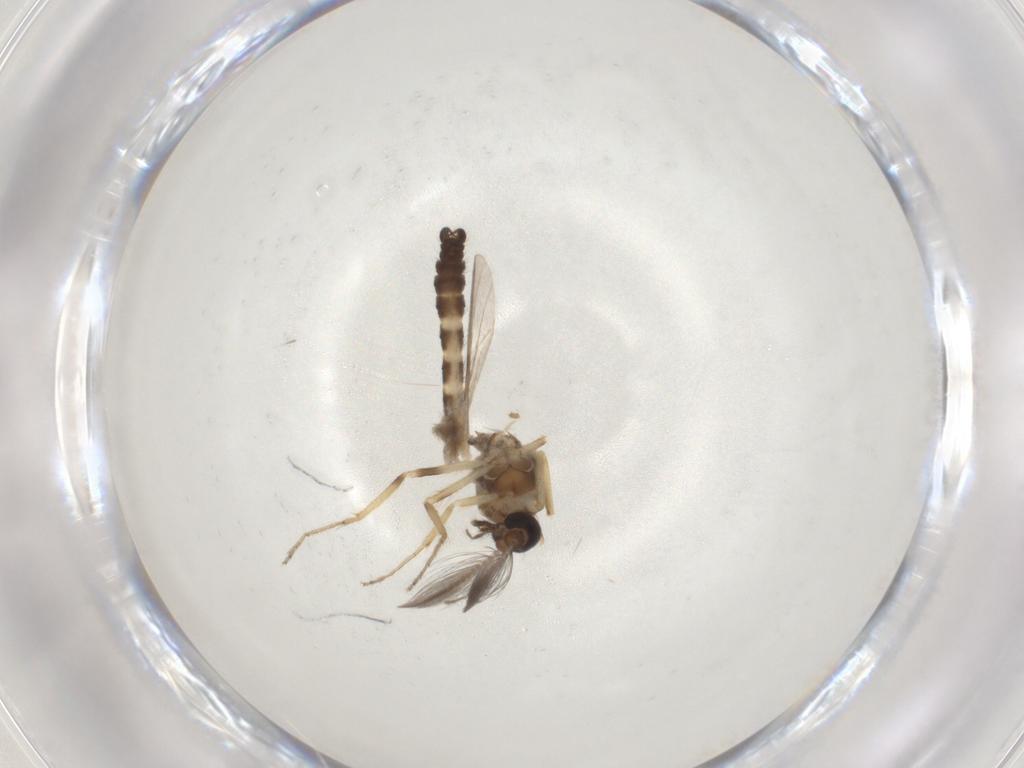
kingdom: Animalia
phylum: Arthropoda
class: Insecta
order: Diptera
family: Ceratopogonidae
